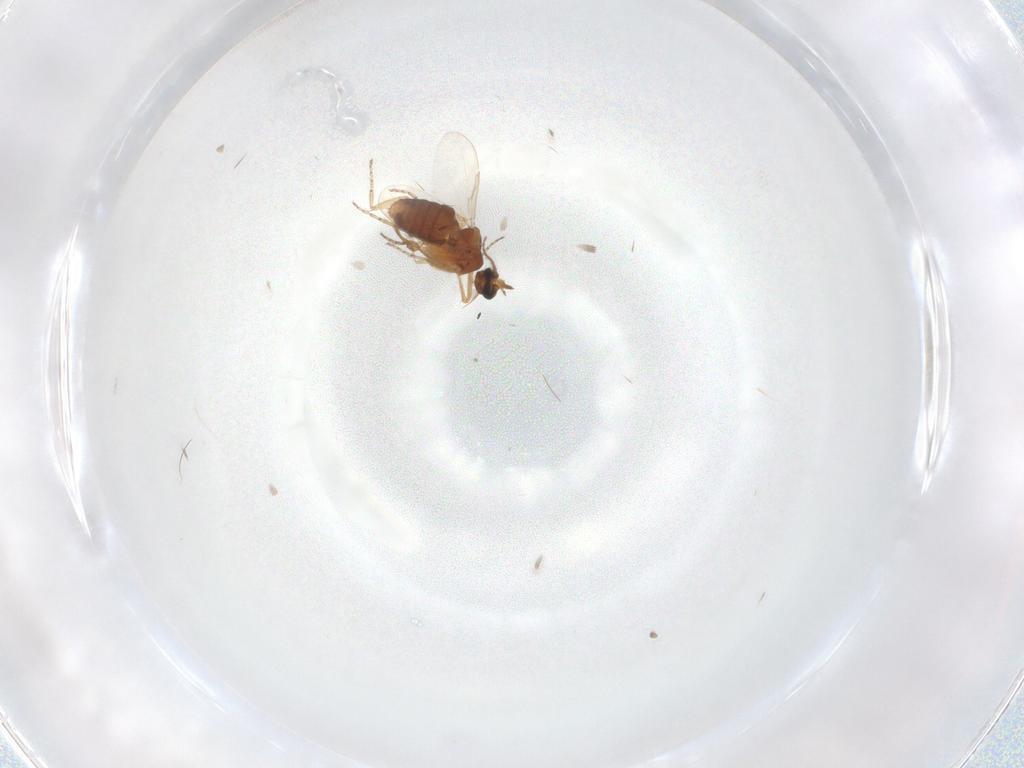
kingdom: Animalia
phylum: Arthropoda
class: Insecta
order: Diptera
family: Ceratopogonidae
